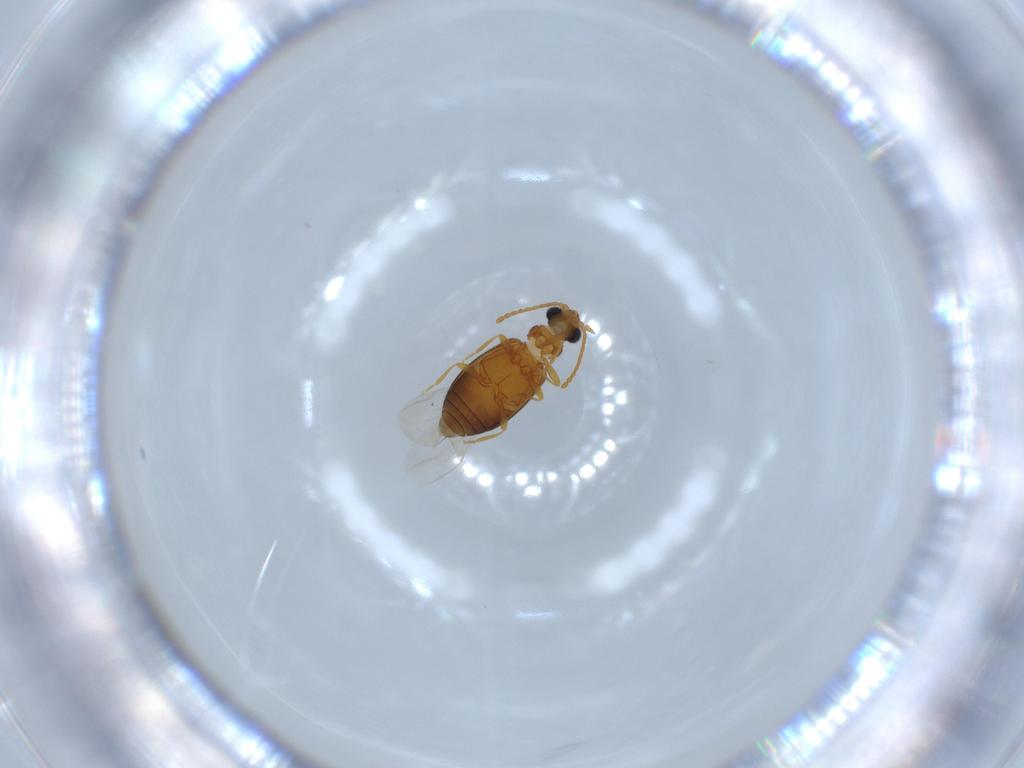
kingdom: Animalia
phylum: Arthropoda
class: Insecta
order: Coleoptera
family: Aderidae
